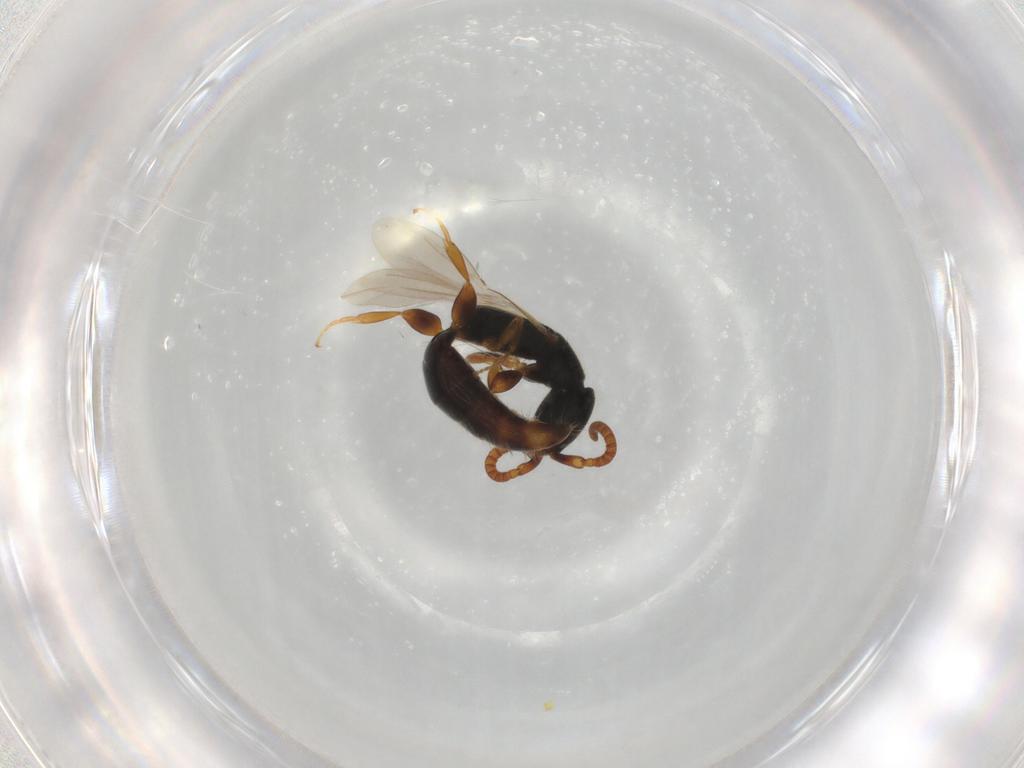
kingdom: Animalia
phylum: Arthropoda
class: Insecta
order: Hymenoptera
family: Bethylidae
